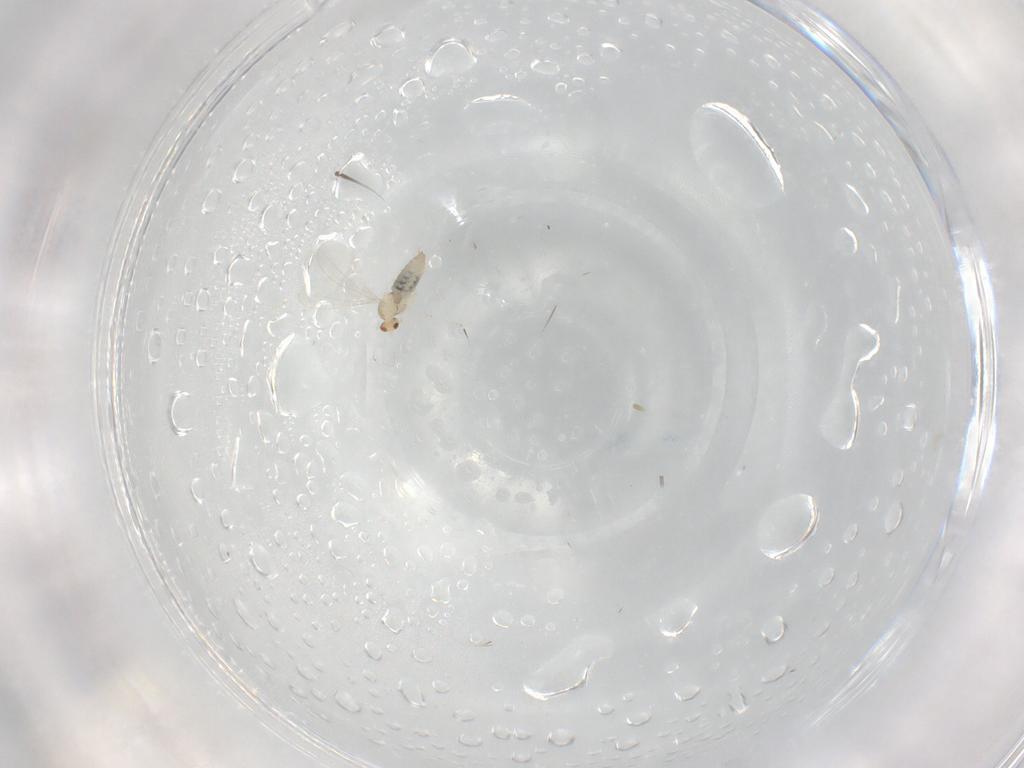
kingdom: Animalia
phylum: Arthropoda
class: Insecta
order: Diptera
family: Cecidomyiidae
